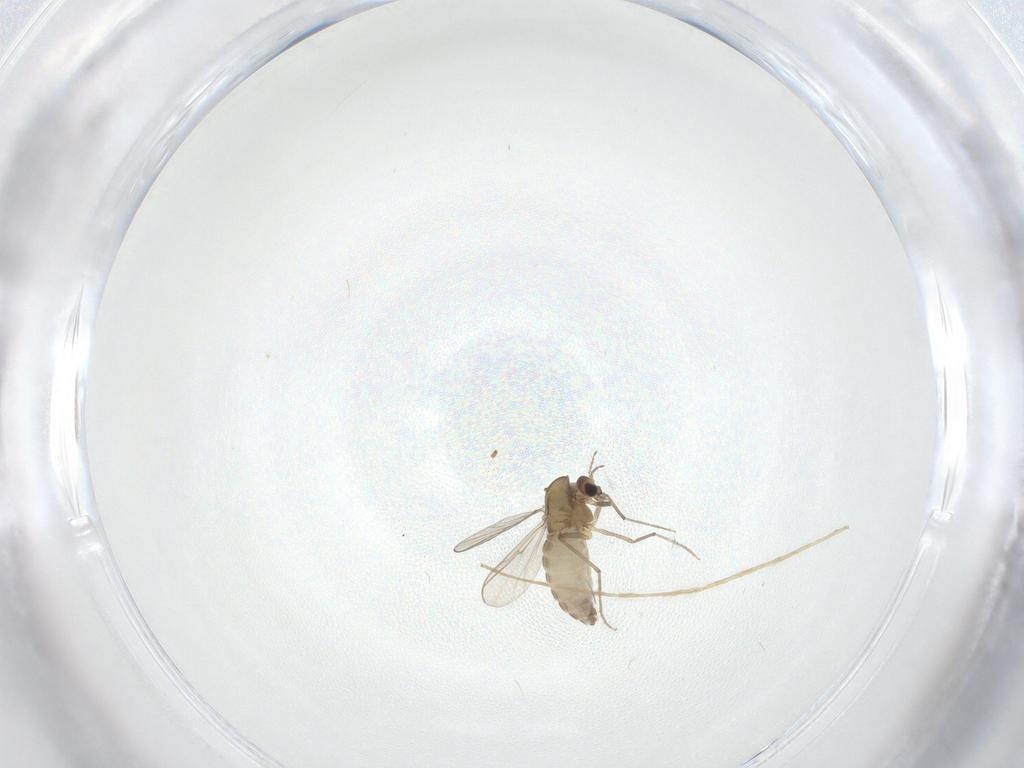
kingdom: Animalia
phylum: Arthropoda
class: Insecta
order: Diptera
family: Chironomidae
